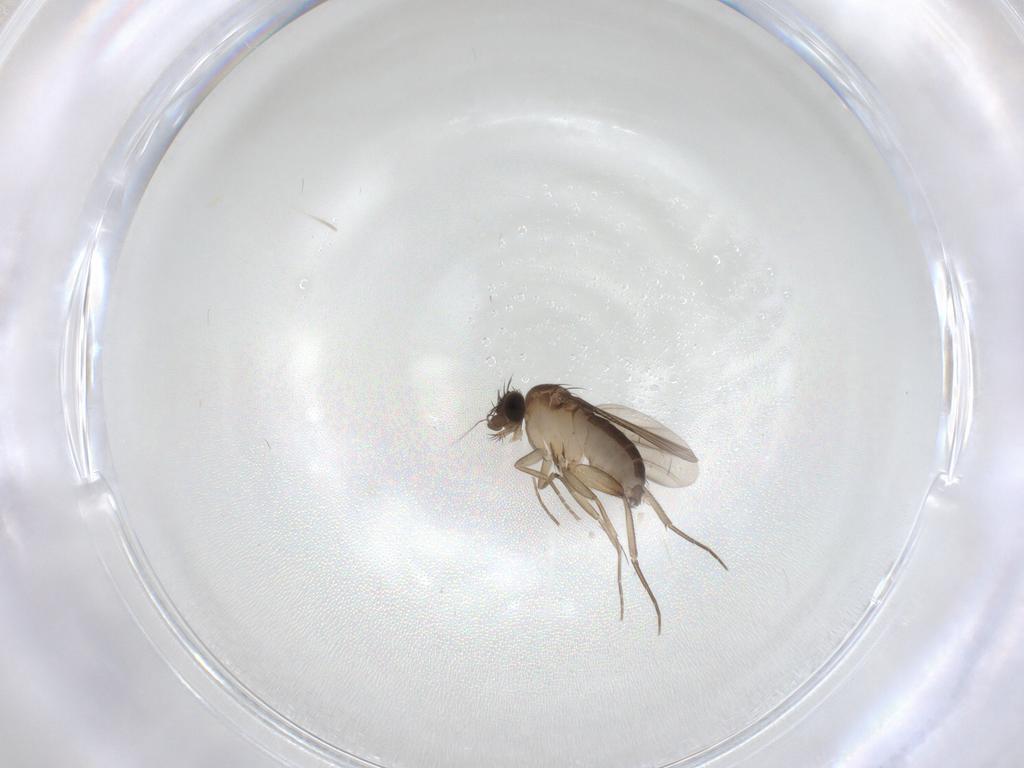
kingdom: Animalia
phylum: Arthropoda
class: Insecta
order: Diptera
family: Phoridae
